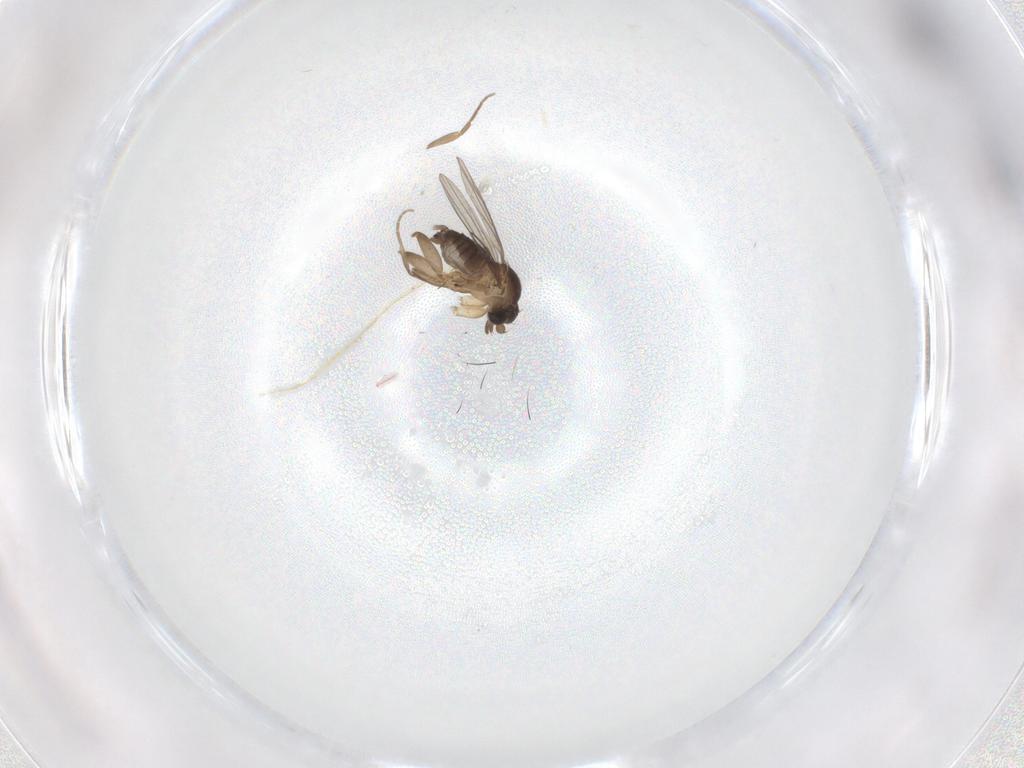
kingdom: Animalia
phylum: Arthropoda
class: Insecta
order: Diptera
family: Phoridae
